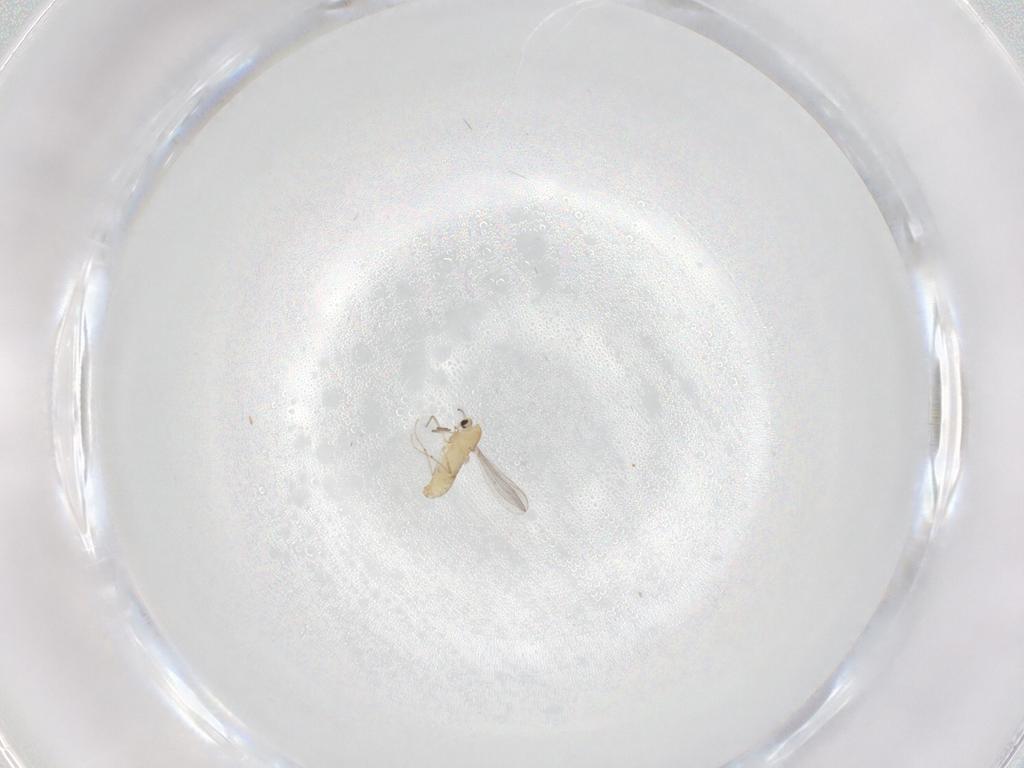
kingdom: Animalia
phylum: Arthropoda
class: Insecta
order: Diptera
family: Chironomidae
